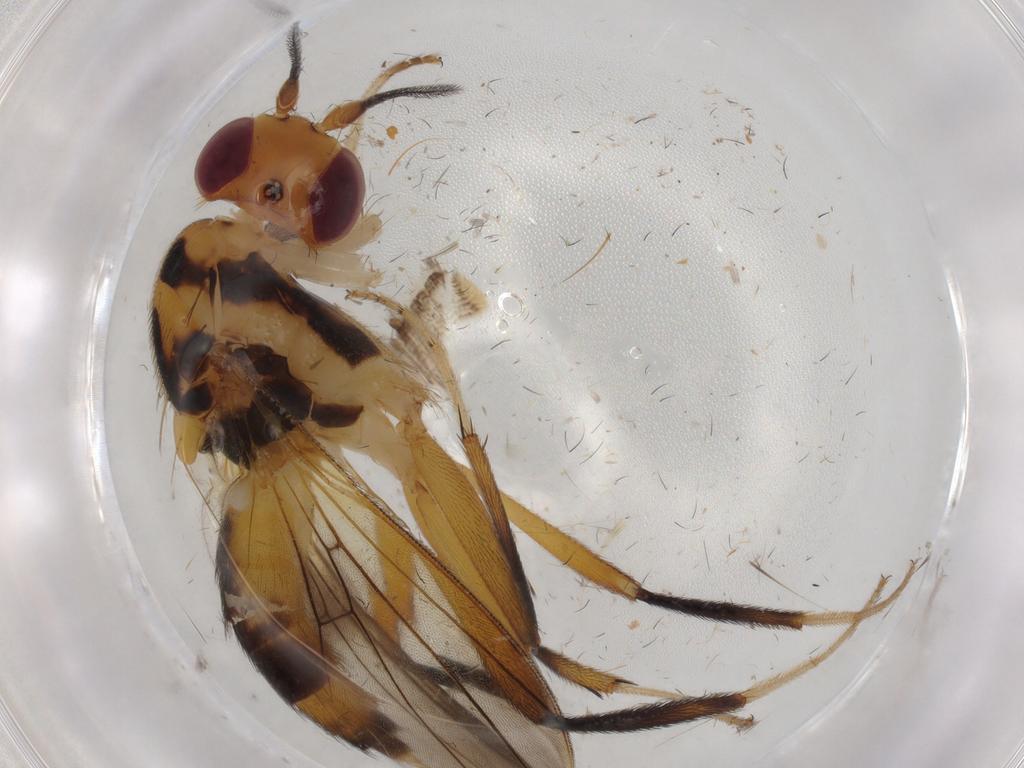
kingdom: Animalia
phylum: Arthropoda
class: Insecta
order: Diptera
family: Clusiidae
